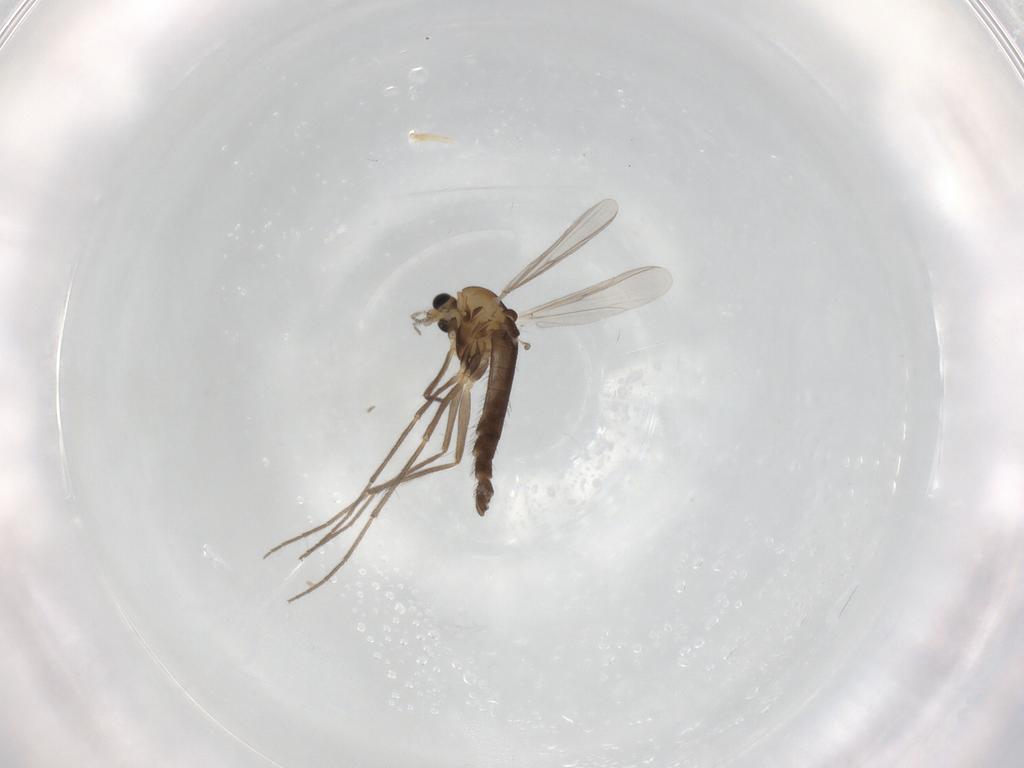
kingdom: Animalia
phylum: Arthropoda
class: Insecta
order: Diptera
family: Chironomidae
